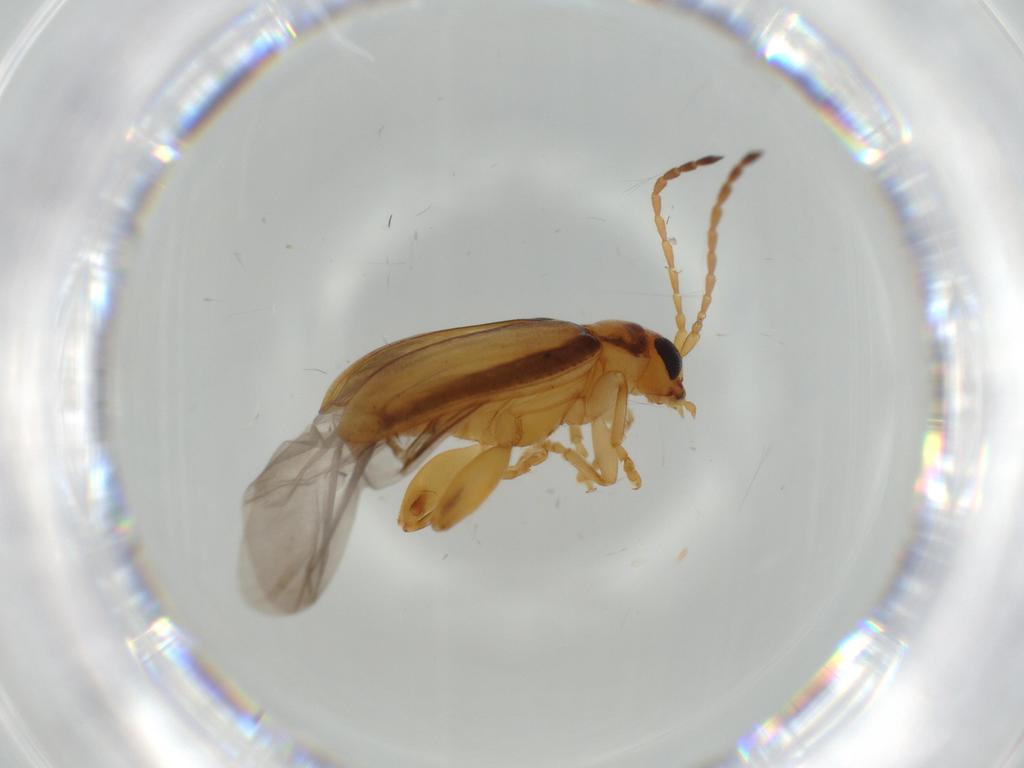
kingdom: Animalia
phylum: Arthropoda
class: Insecta
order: Coleoptera
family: Chrysomelidae
